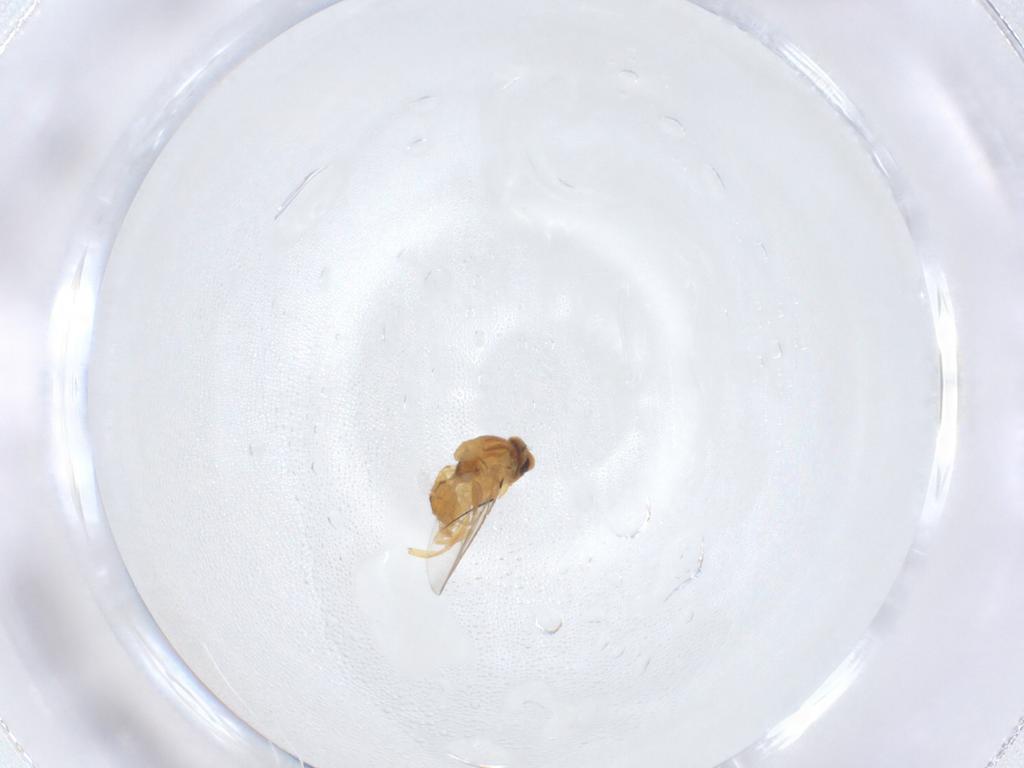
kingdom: Animalia
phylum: Arthropoda
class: Insecta
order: Diptera
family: Chloropidae
